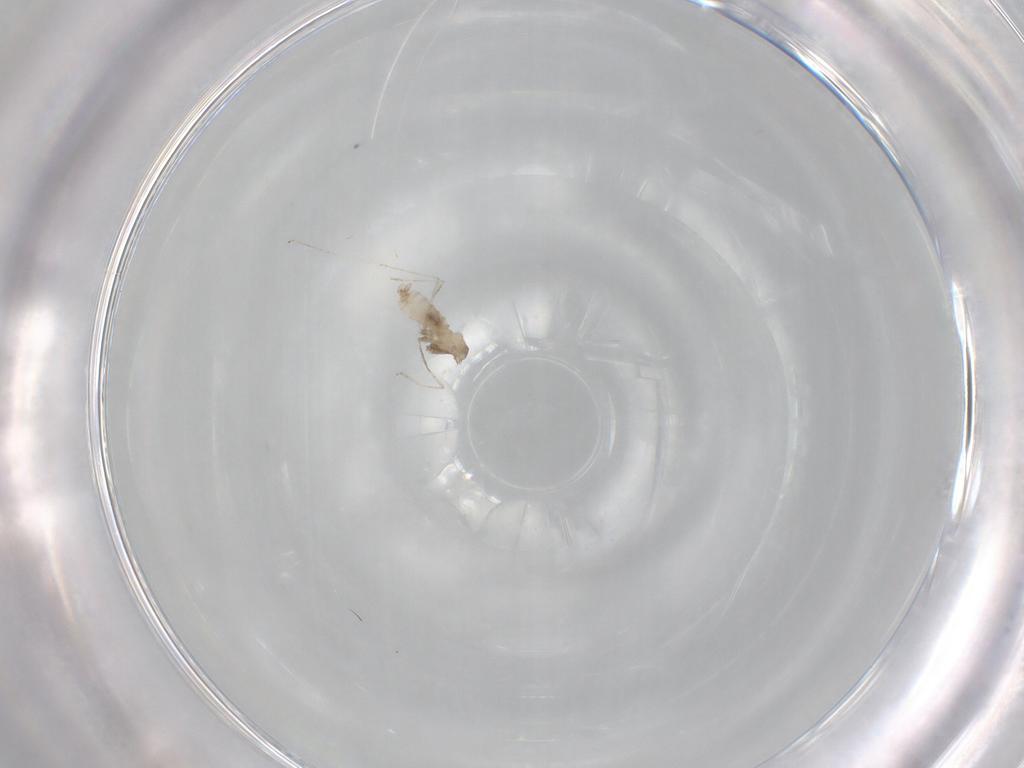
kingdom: Animalia
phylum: Arthropoda
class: Insecta
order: Diptera
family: Cecidomyiidae
